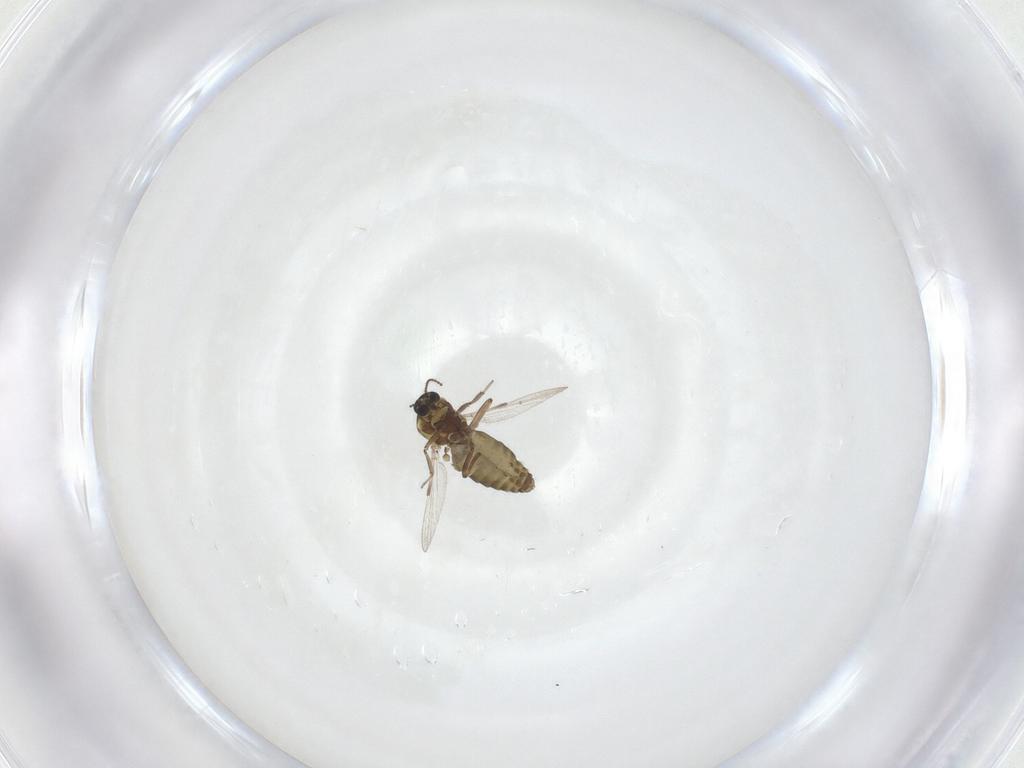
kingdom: Animalia
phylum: Arthropoda
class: Insecta
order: Diptera
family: Ceratopogonidae
